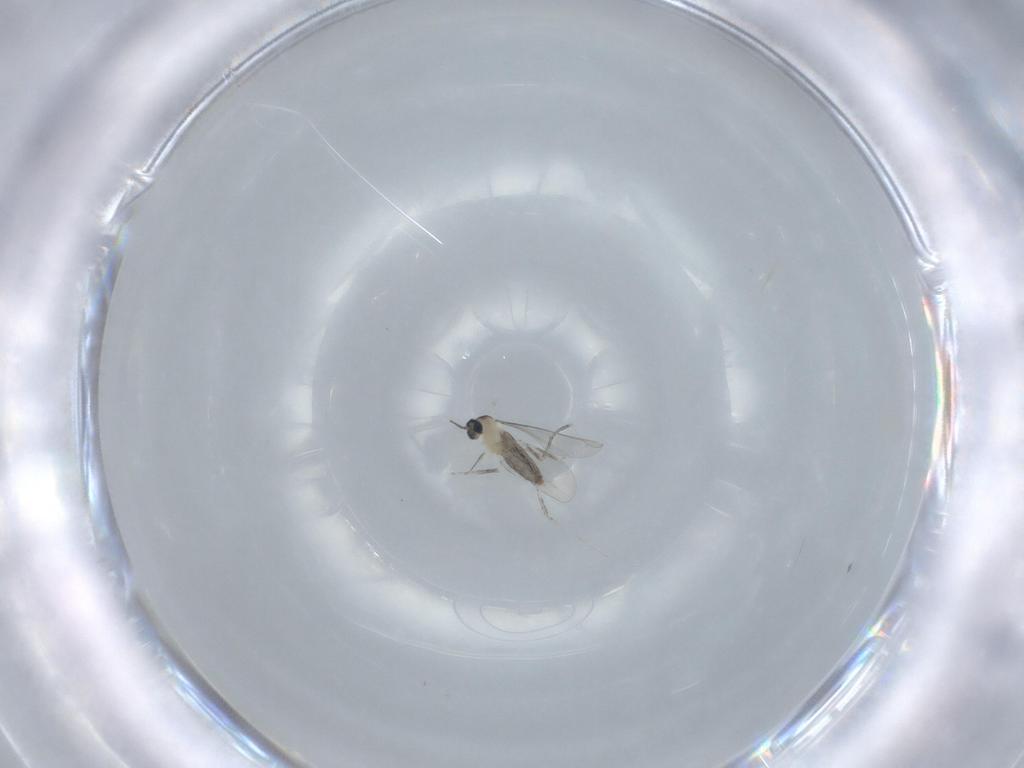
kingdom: Animalia
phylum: Arthropoda
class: Insecta
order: Diptera
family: Cecidomyiidae
